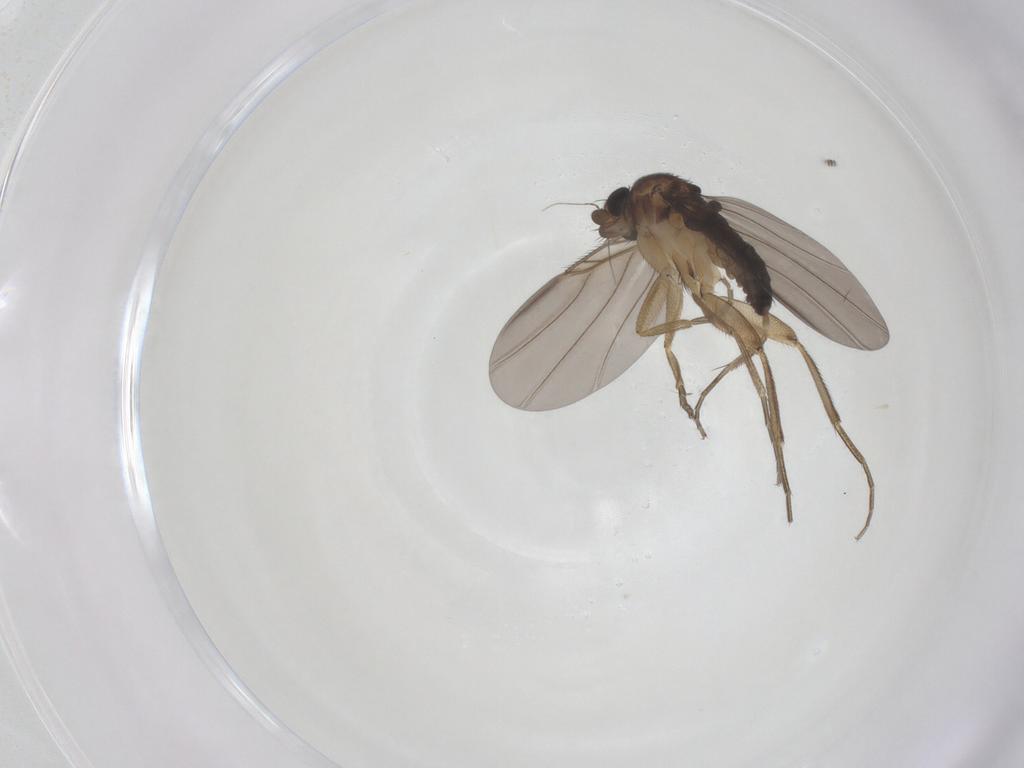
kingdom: Animalia
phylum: Arthropoda
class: Insecta
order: Diptera
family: Phoridae
